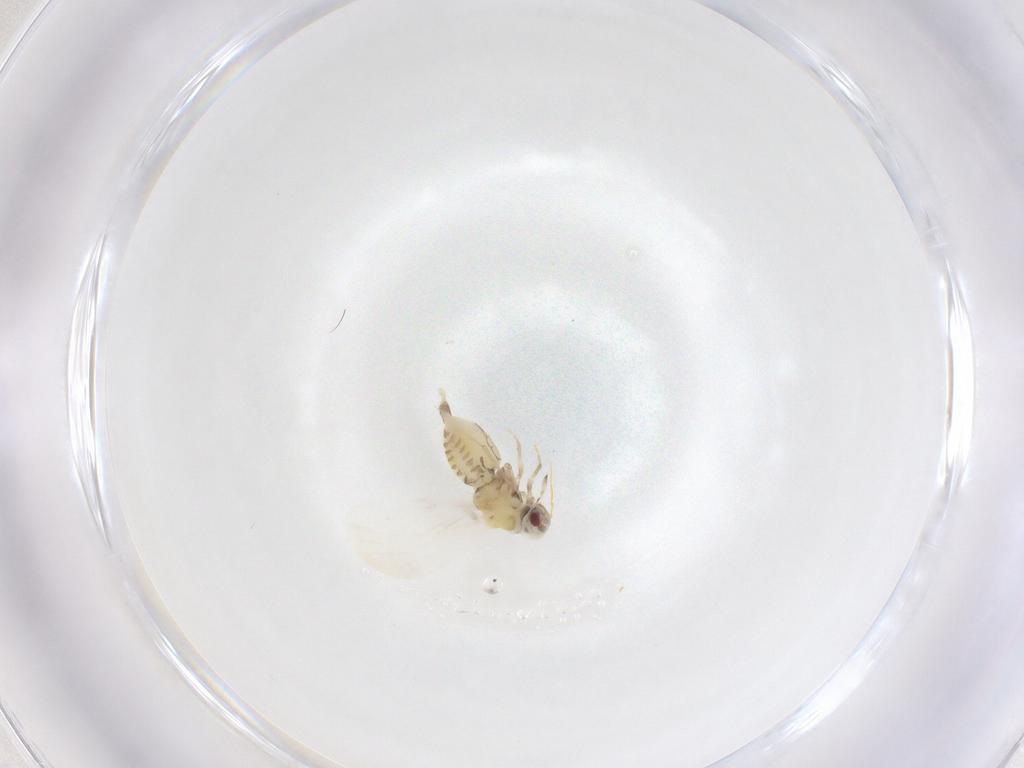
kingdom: Animalia
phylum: Arthropoda
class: Insecta
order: Hemiptera
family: Aleyrodidae
